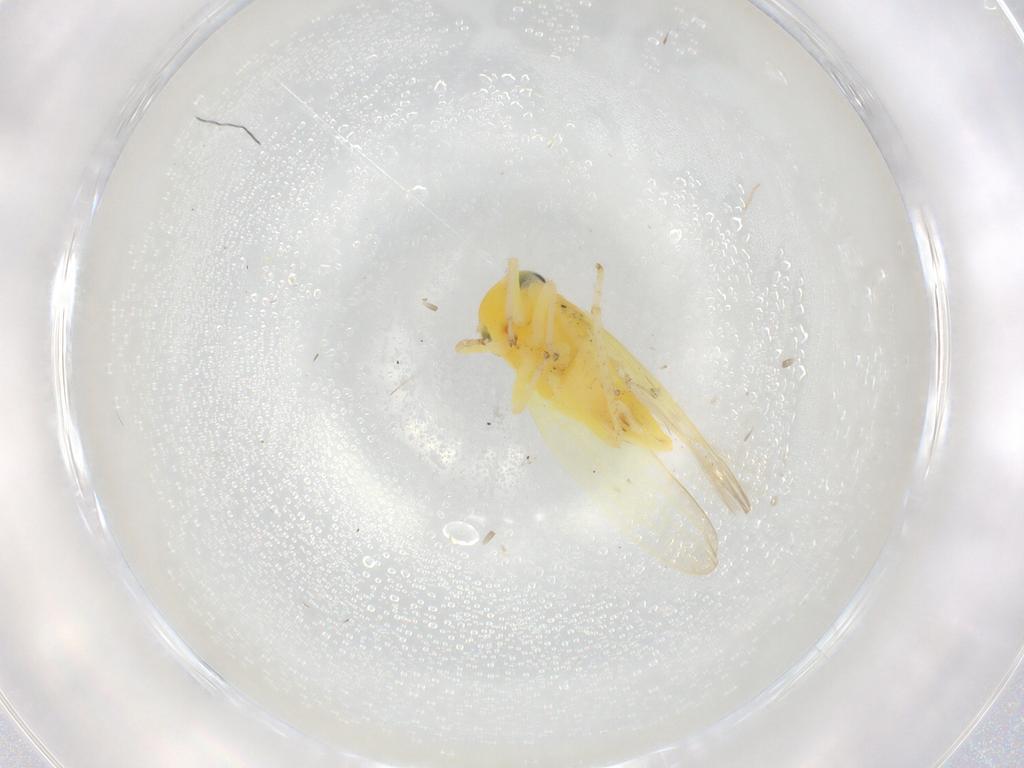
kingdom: Animalia
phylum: Arthropoda
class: Insecta
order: Hemiptera
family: Cicadellidae
